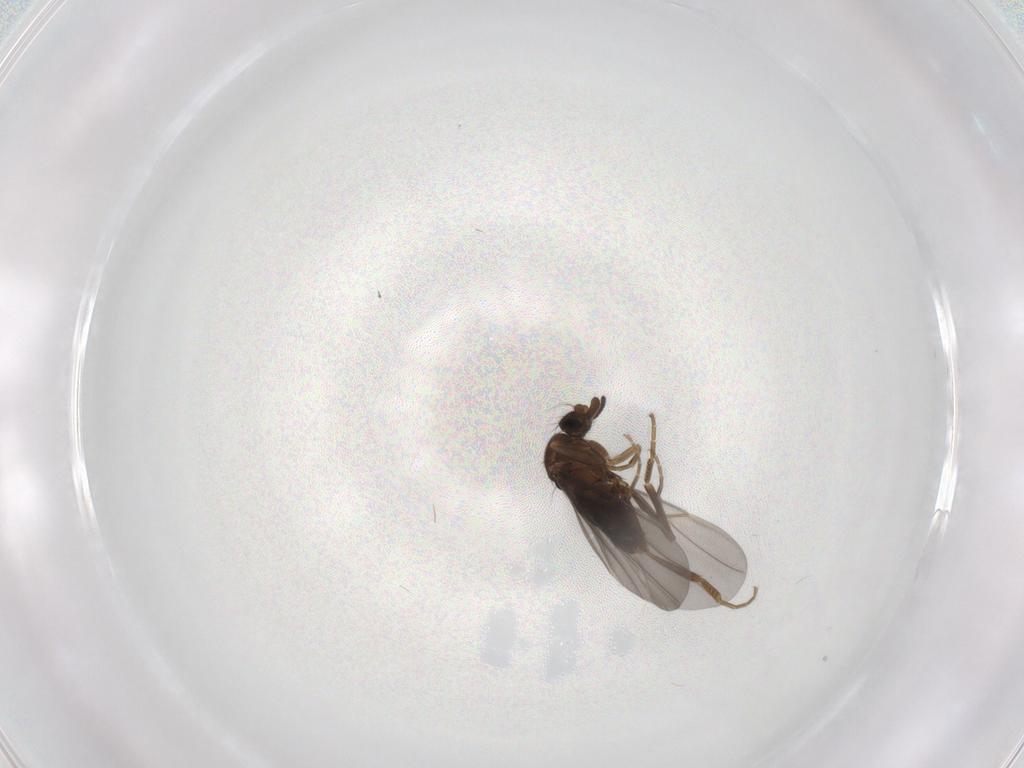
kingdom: Animalia
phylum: Arthropoda
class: Insecta
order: Diptera
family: Phoridae
